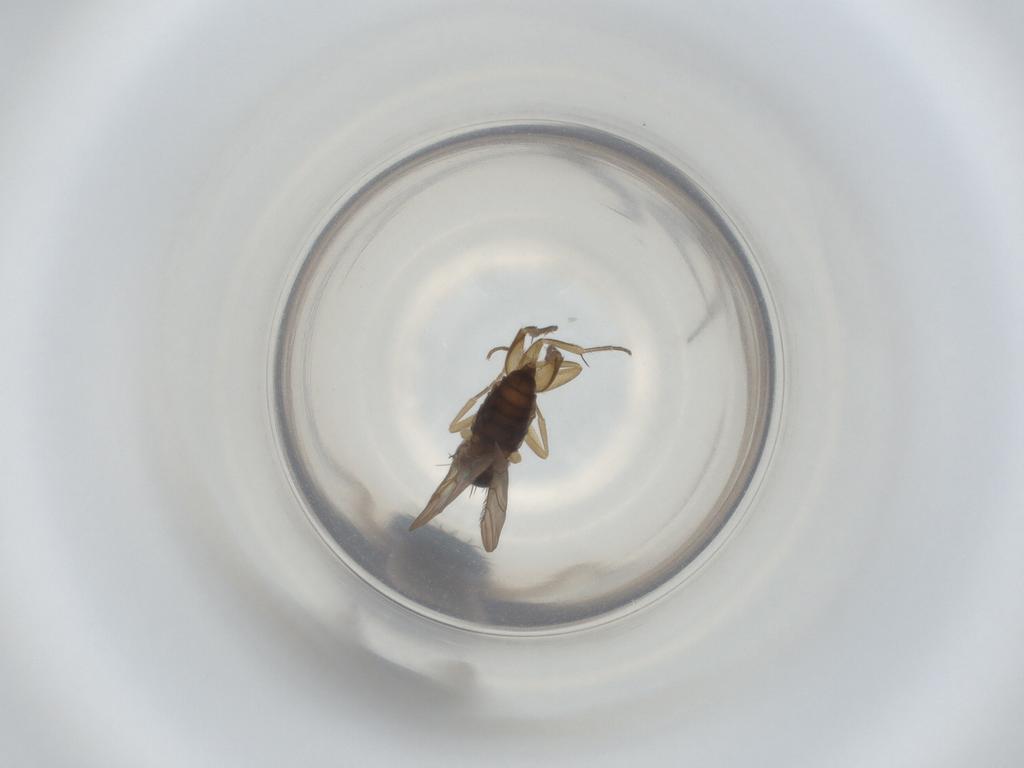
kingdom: Animalia
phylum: Arthropoda
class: Insecta
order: Diptera
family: Phoridae
